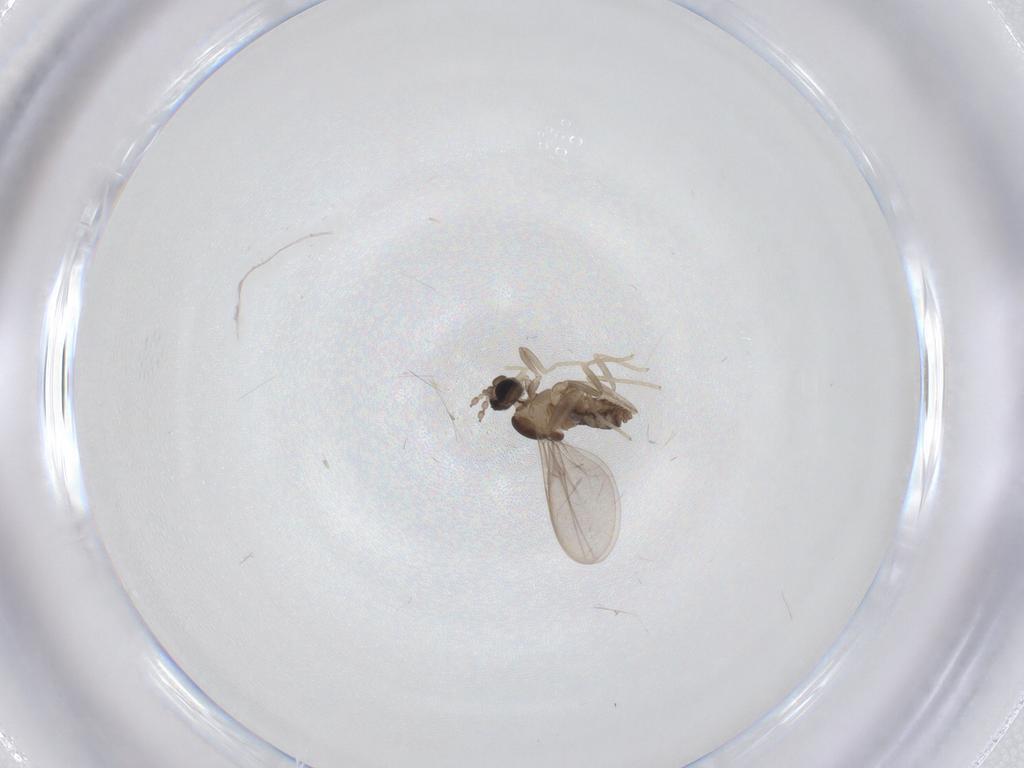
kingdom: Animalia
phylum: Arthropoda
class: Insecta
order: Diptera
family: Cecidomyiidae
